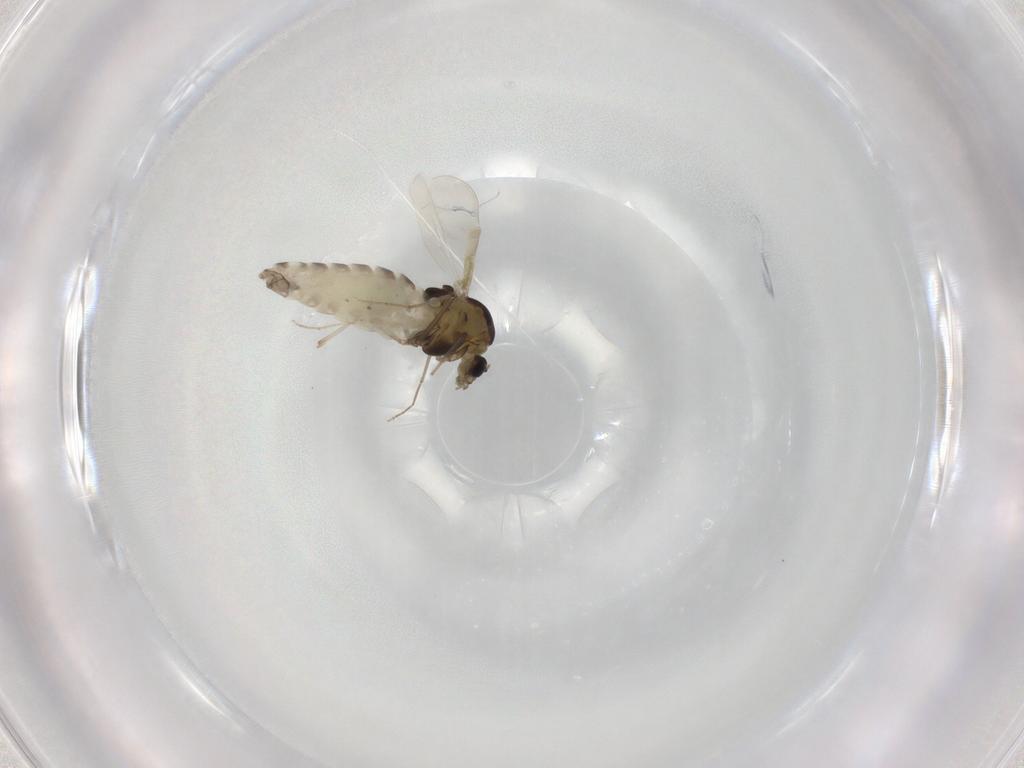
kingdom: Animalia
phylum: Arthropoda
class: Insecta
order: Diptera
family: Chironomidae
